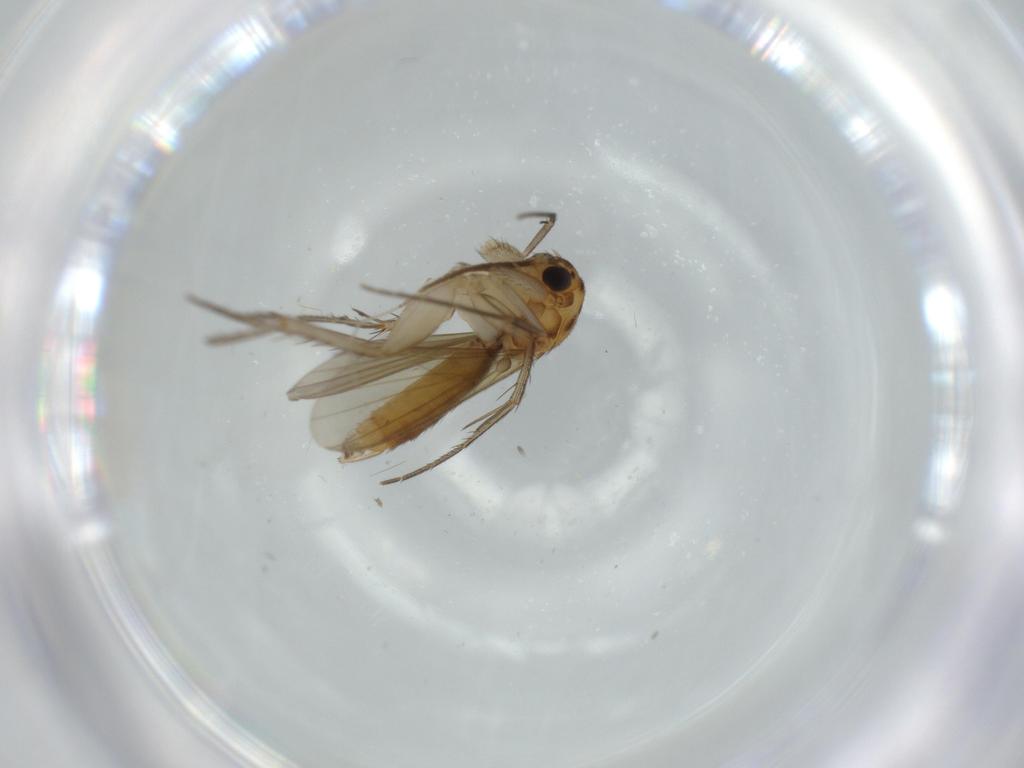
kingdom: Animalia
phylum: Arthropoda
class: Insecta
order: Diptera
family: Mycetophilidae
